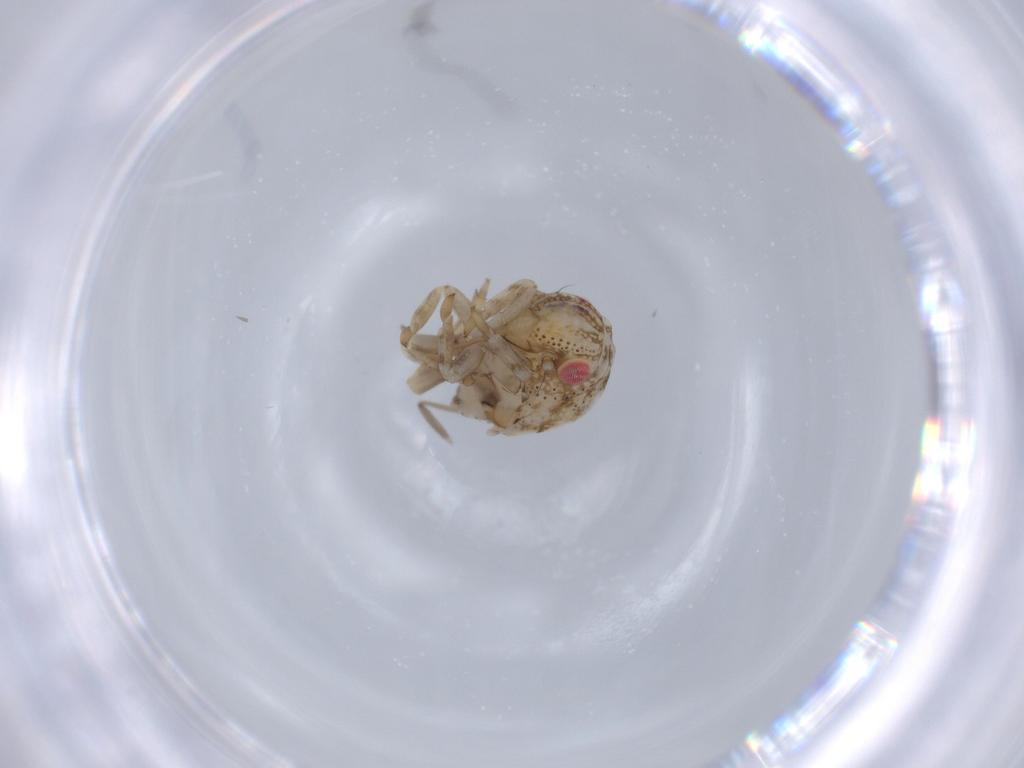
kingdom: Animalia
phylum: Arthropoda
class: Insecta
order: Hemiptera
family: Acanaloniidae
